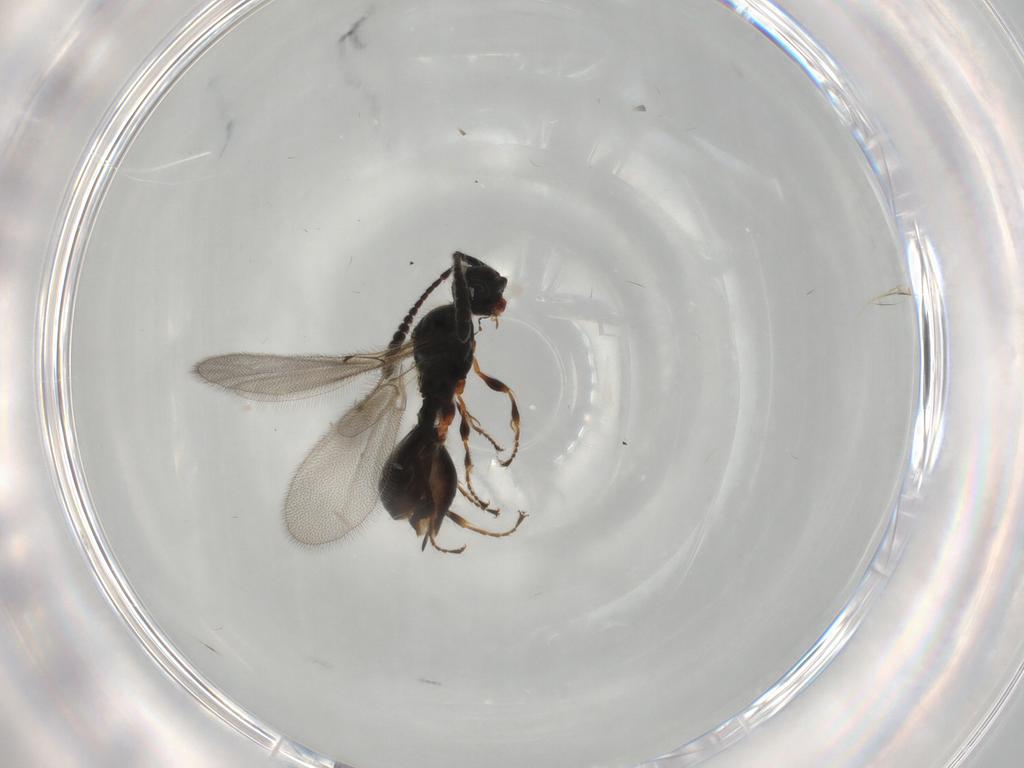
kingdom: Animalia
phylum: Arthropoda
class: Insecta
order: Hymenoptera
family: Diapriidae
